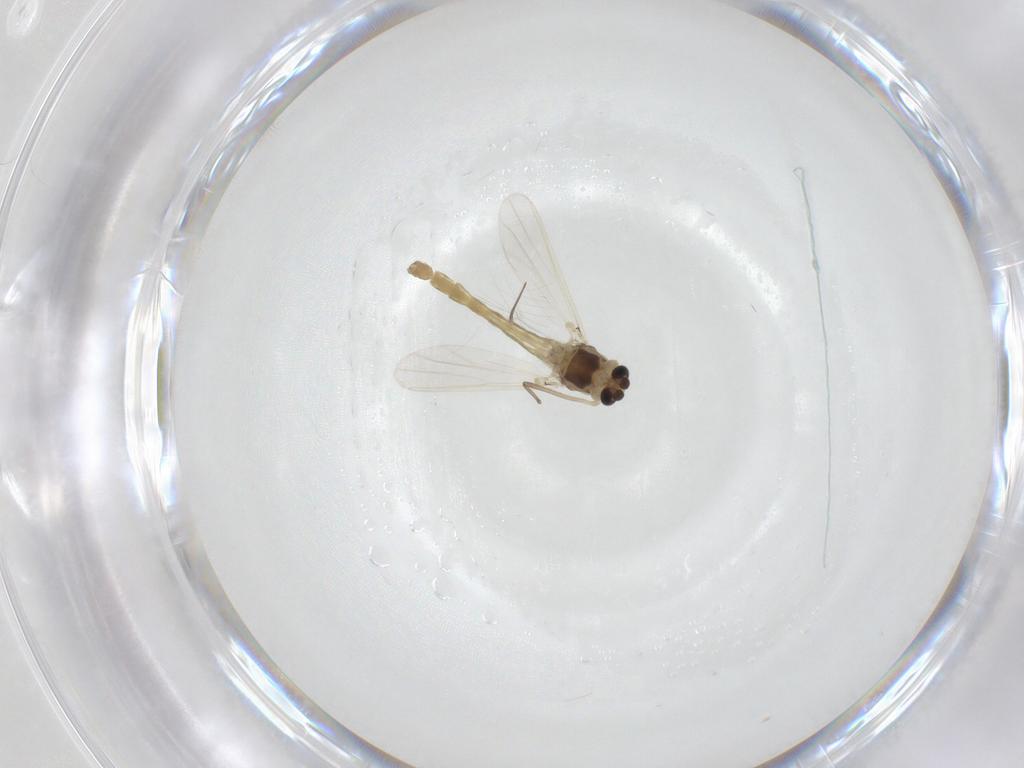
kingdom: Animalia
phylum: Arthropoda
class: Insecta
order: Diptera
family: Chironomidae
